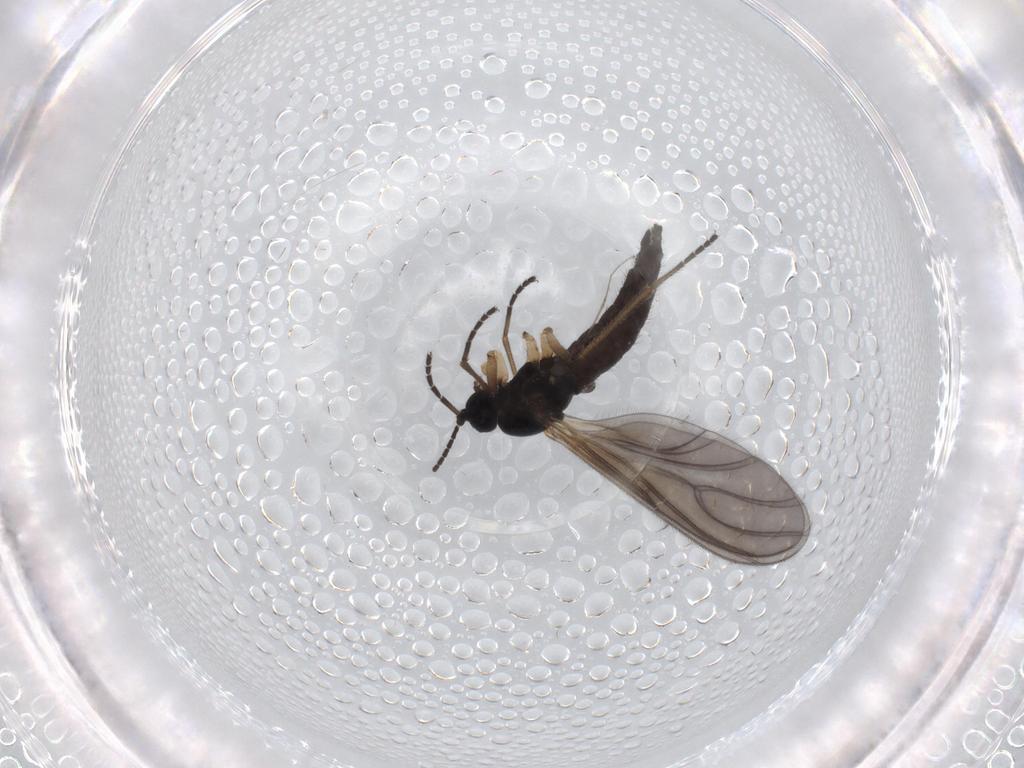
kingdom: Animalia
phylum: Arthropoda
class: Insecta
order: Diptera
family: Sciaridae
